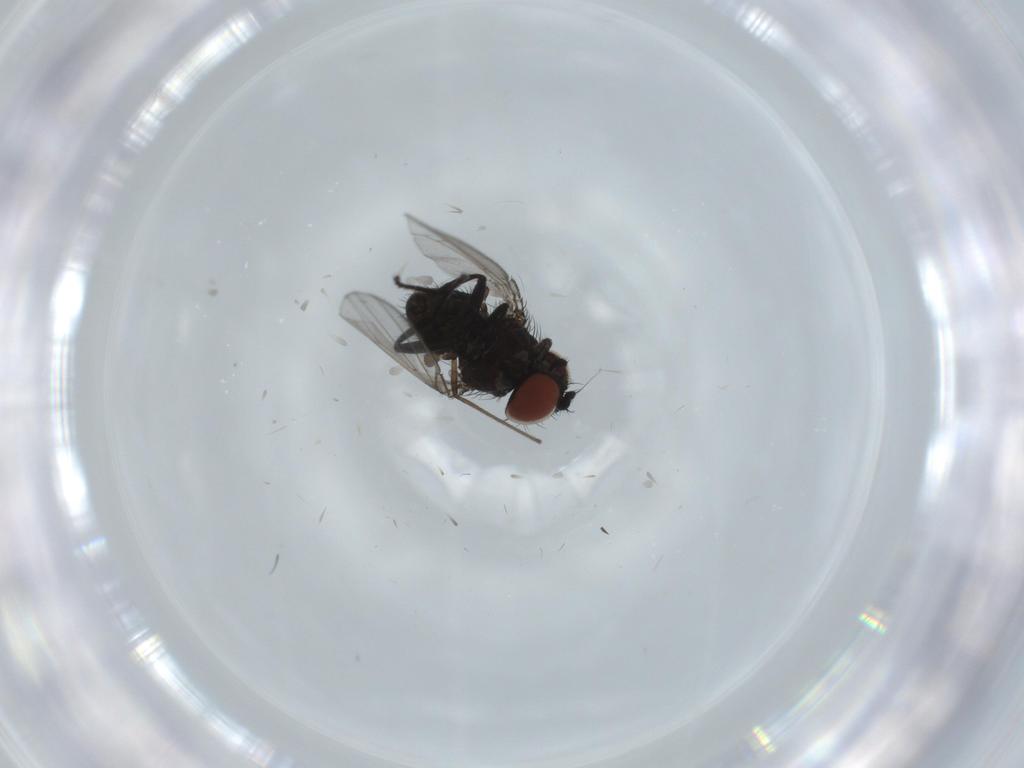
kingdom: Animalia
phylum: Arthropoda
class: Insecta
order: Diptera
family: Milichiidae
